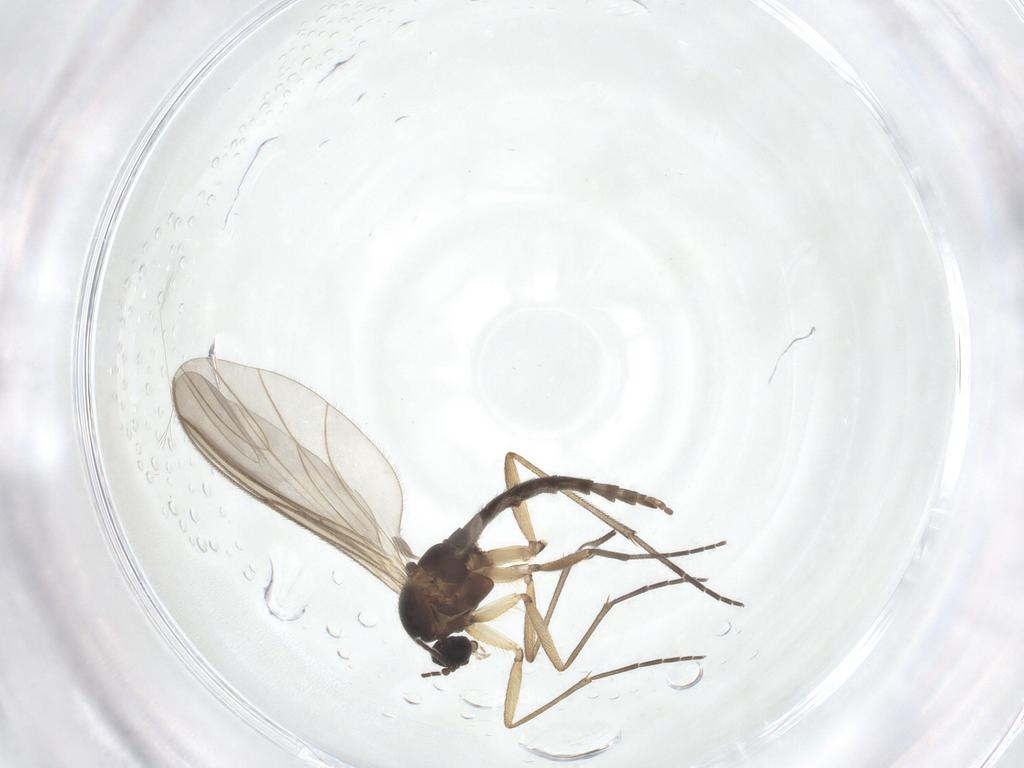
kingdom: Animalia
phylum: Arthropoda
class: Insecta
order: Diptera
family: Sciaridae
